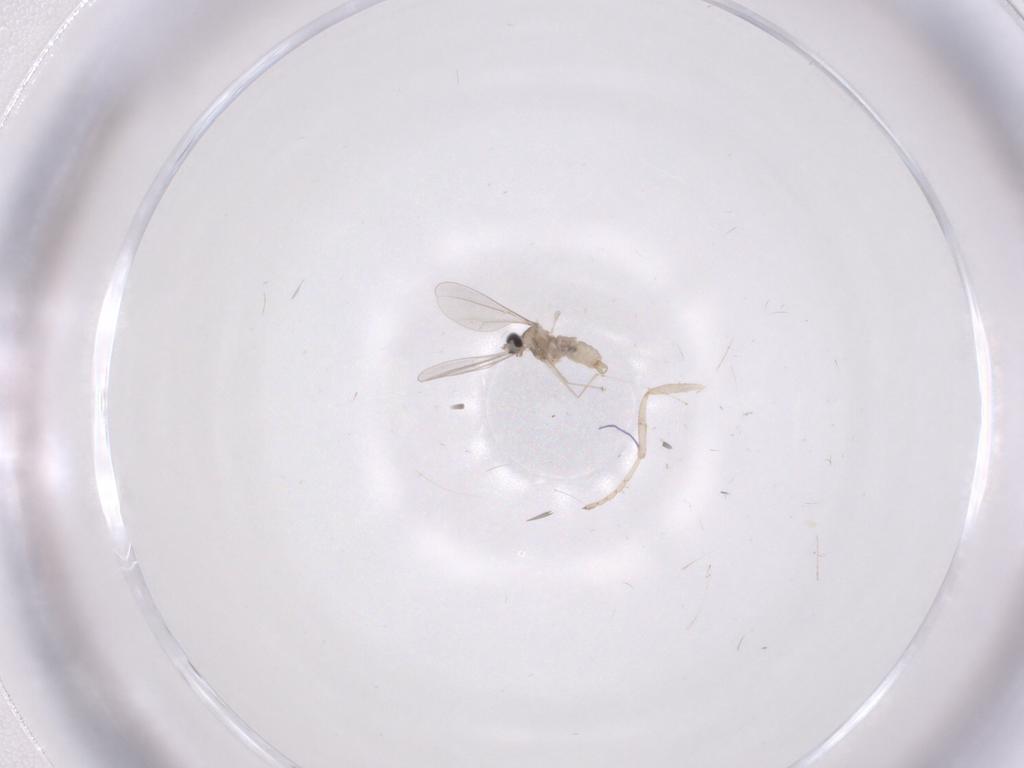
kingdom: Animalia
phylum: Arthropoda
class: Insecta
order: Diptera
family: Cecidomyiidae
